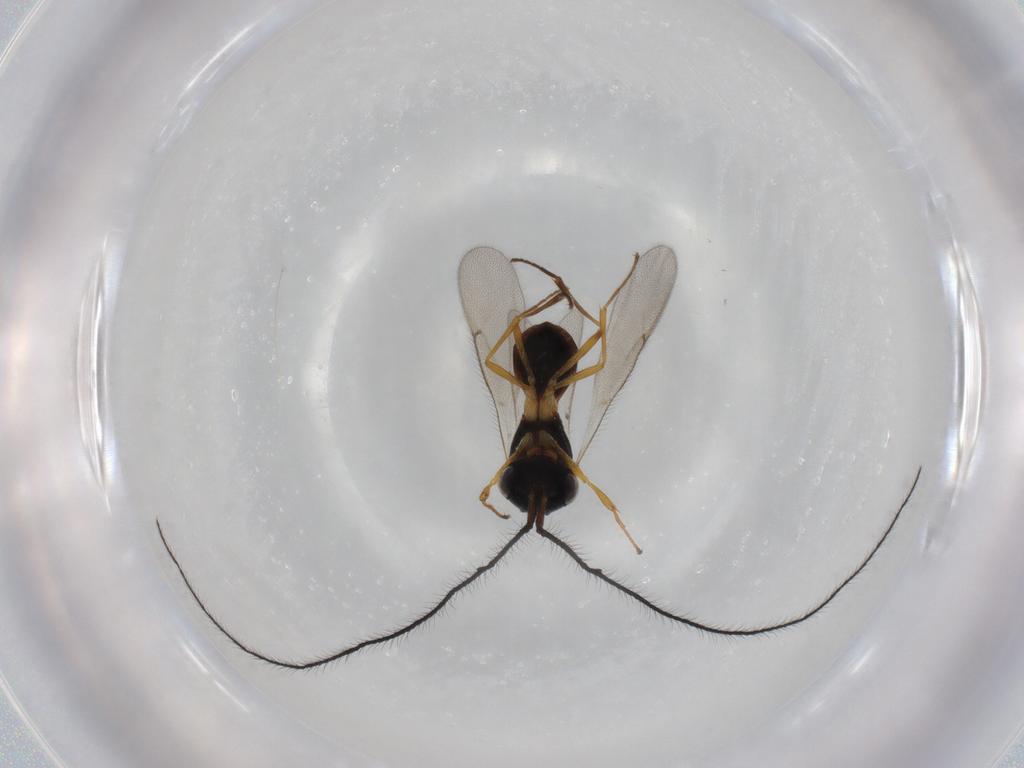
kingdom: Animalia
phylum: Arthropoda
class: Insecta
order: Hymenoptera
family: Scelionidae
